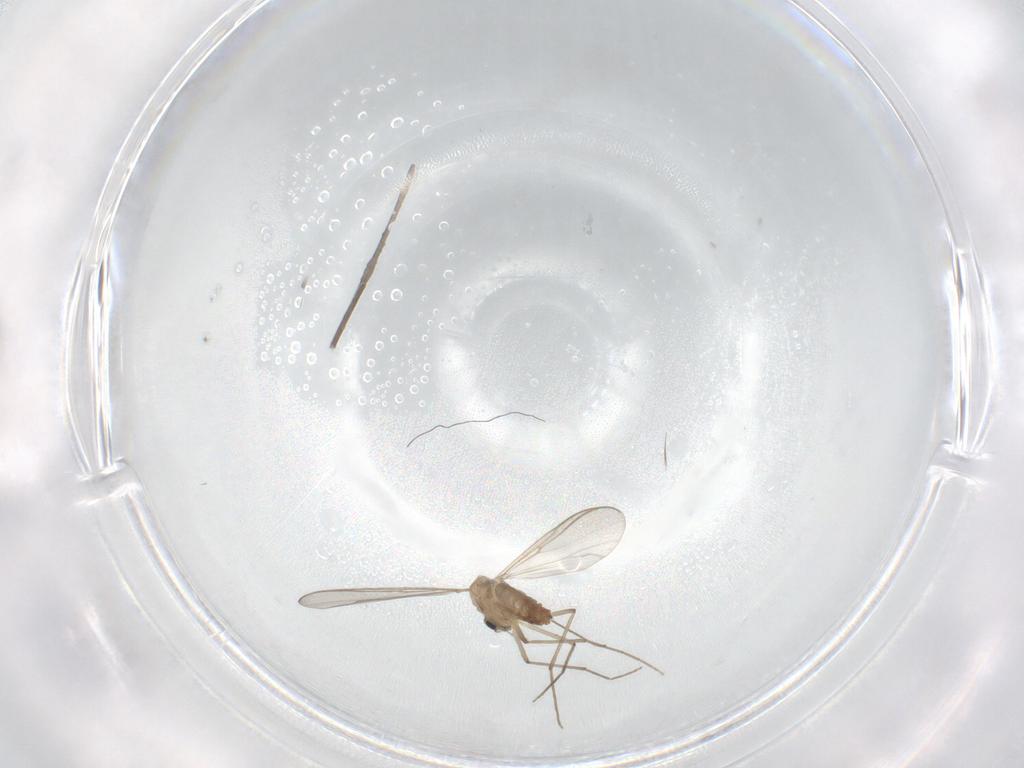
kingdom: Animalia
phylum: Arthropoda
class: Insecta
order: Diptera
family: Chironomidae
